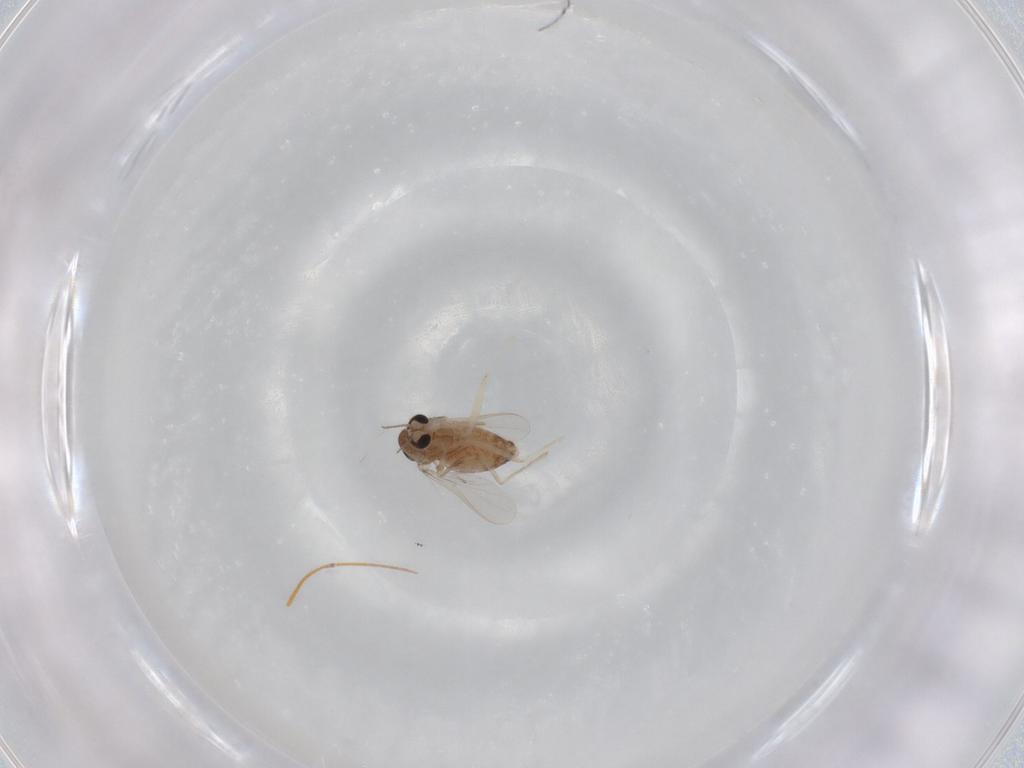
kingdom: Animalia
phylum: Arthropoda
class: Insecta
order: Diptera
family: Chironomidae
